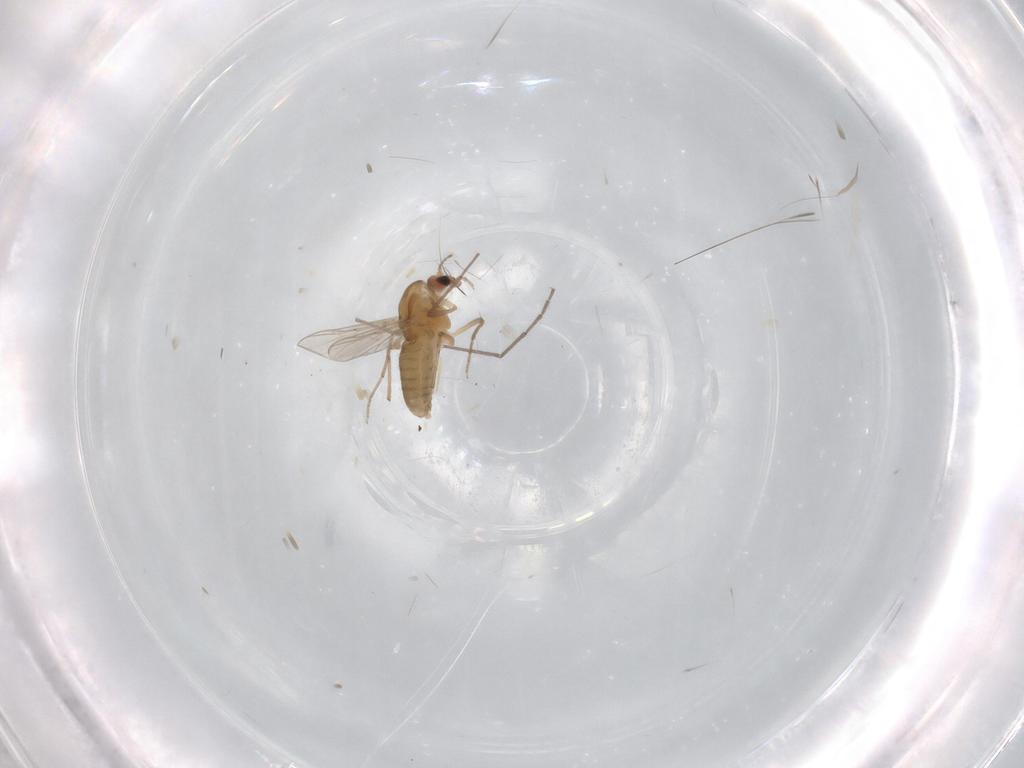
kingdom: Animalia
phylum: Arthropoda
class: Insecta
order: Diptera
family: Chironomidae
